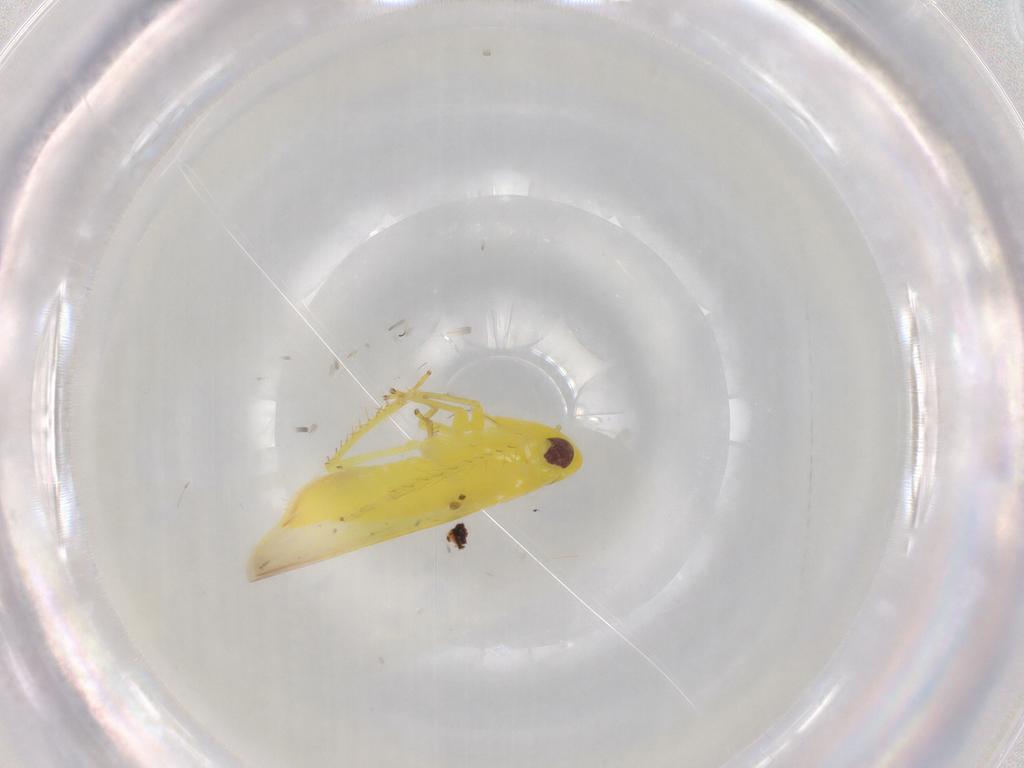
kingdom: Animalia
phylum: Arthropoda
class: Insecta
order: Hemiptera
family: Cicadellidae
